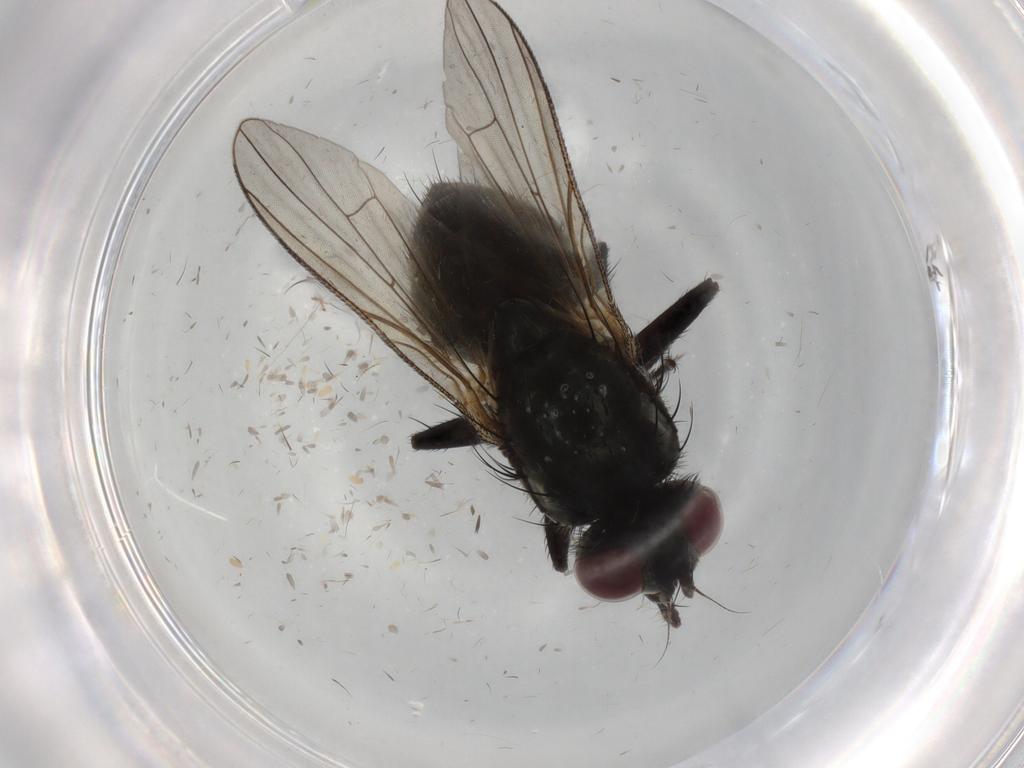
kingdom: Animalia
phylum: Arthropoda
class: Insecta
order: Diptera
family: Muscidae
